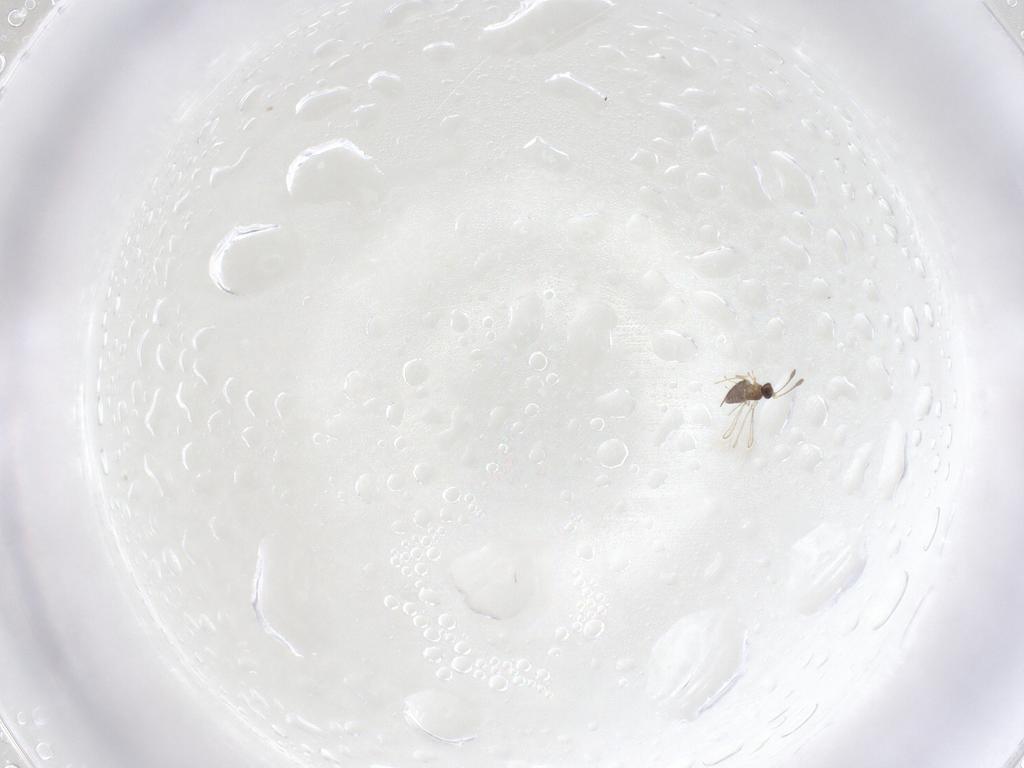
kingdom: Animalia
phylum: Arthropoda
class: Insecta
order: Hymenoptera
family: Mymaridae
